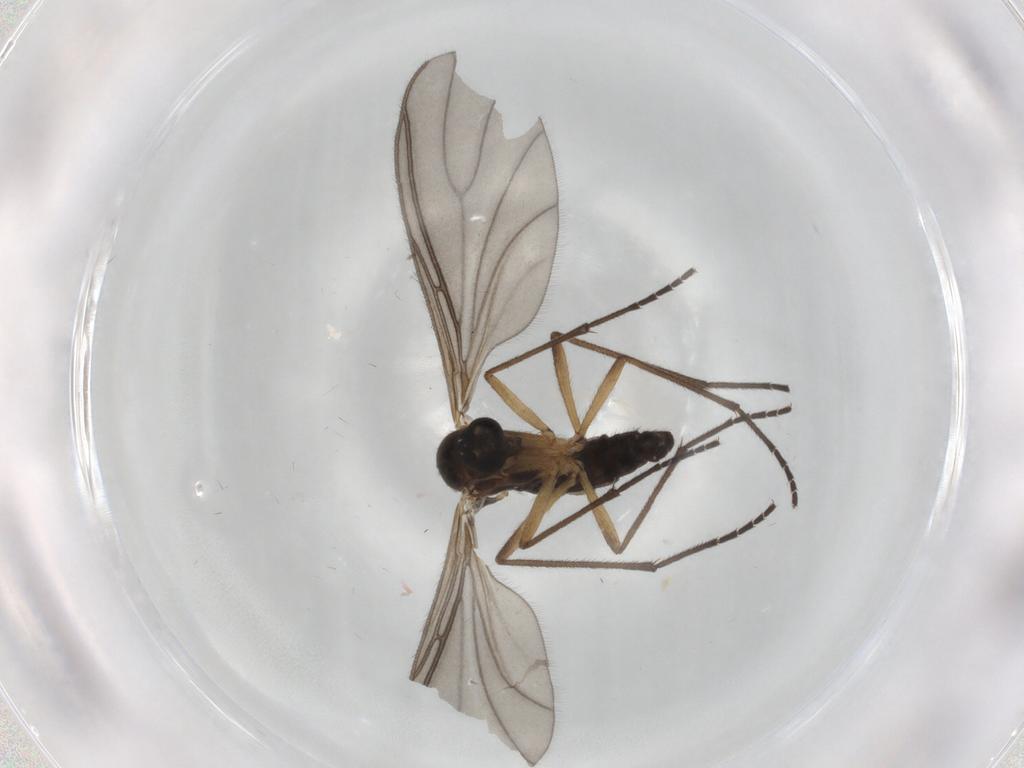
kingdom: Animalia
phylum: Arthropoda
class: Insecta
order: Diptera
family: Sciaridae
